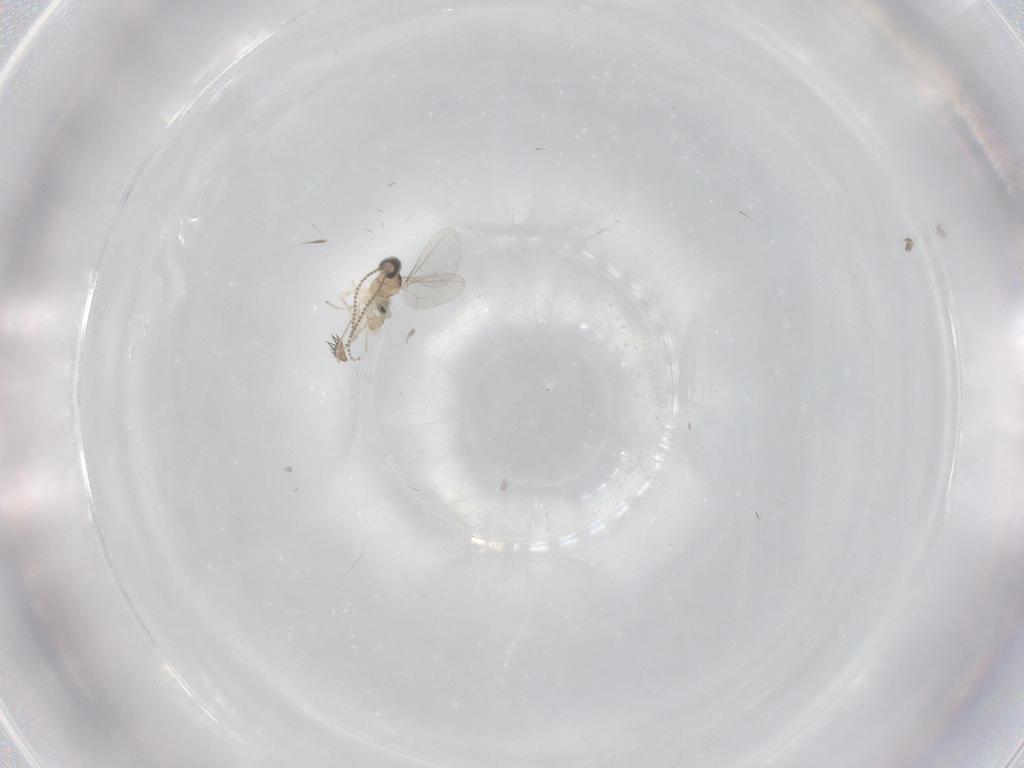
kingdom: Animalia
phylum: Arthropoda
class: Insecta
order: Diptera
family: Cecidomyiidae
